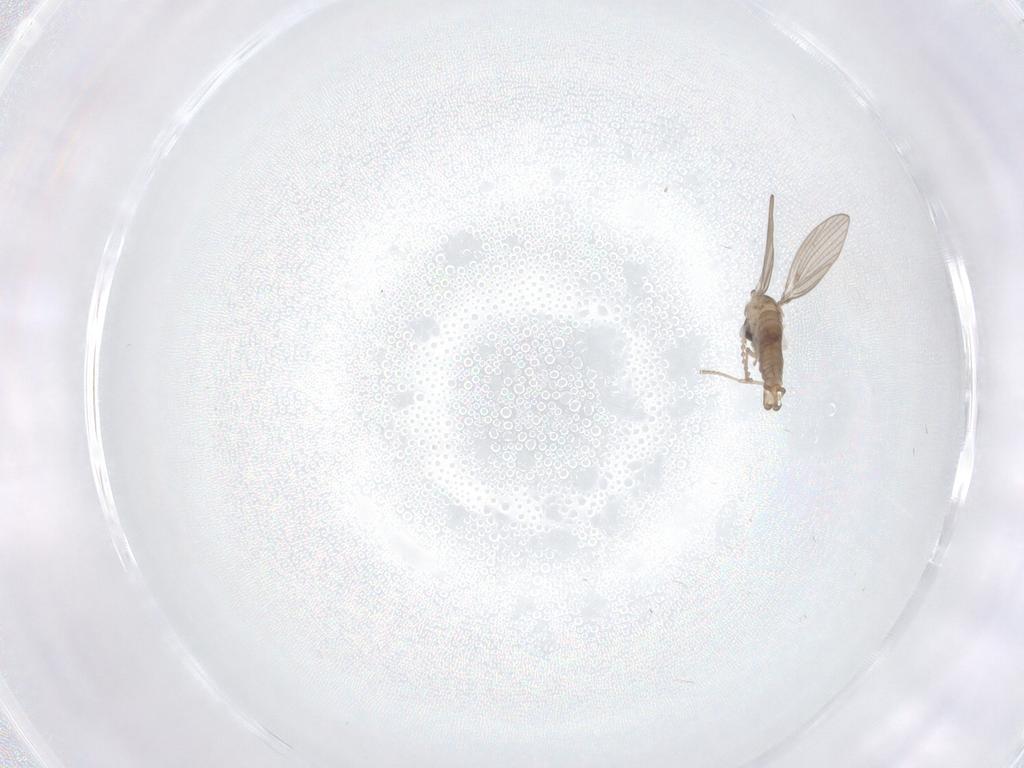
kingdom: Animalia
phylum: Arthropoda
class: Insecta
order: Diptera
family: Psychodidae
